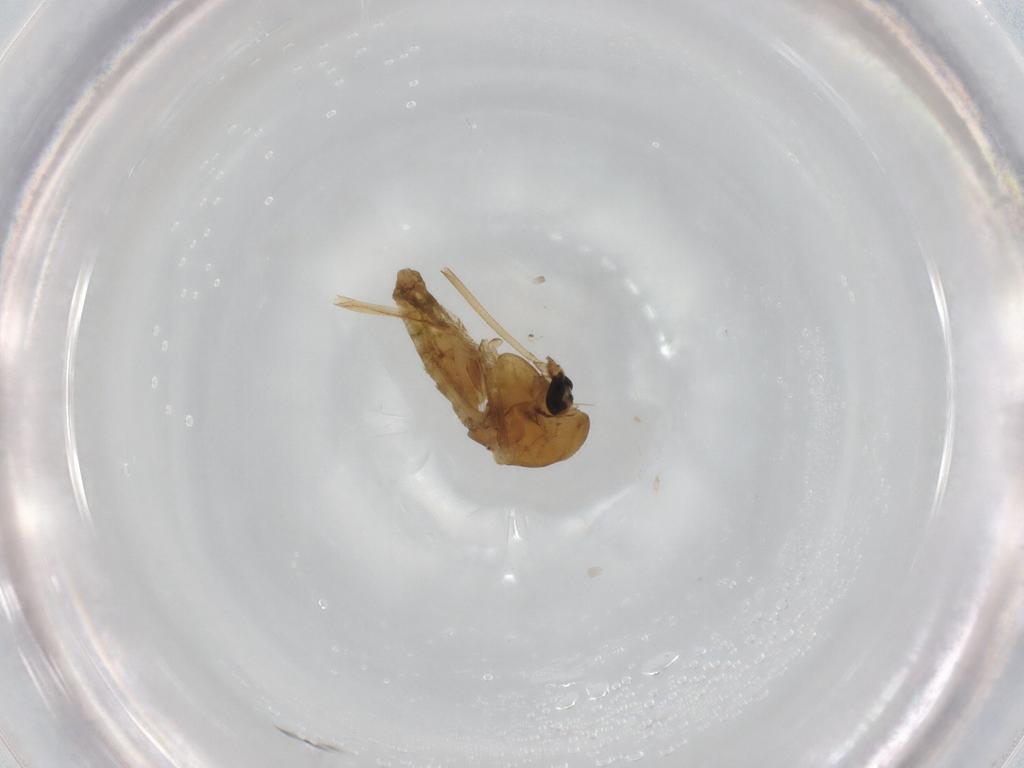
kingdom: Animalia
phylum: Arthropoda
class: Insecta
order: Diptera
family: Chironomidae
